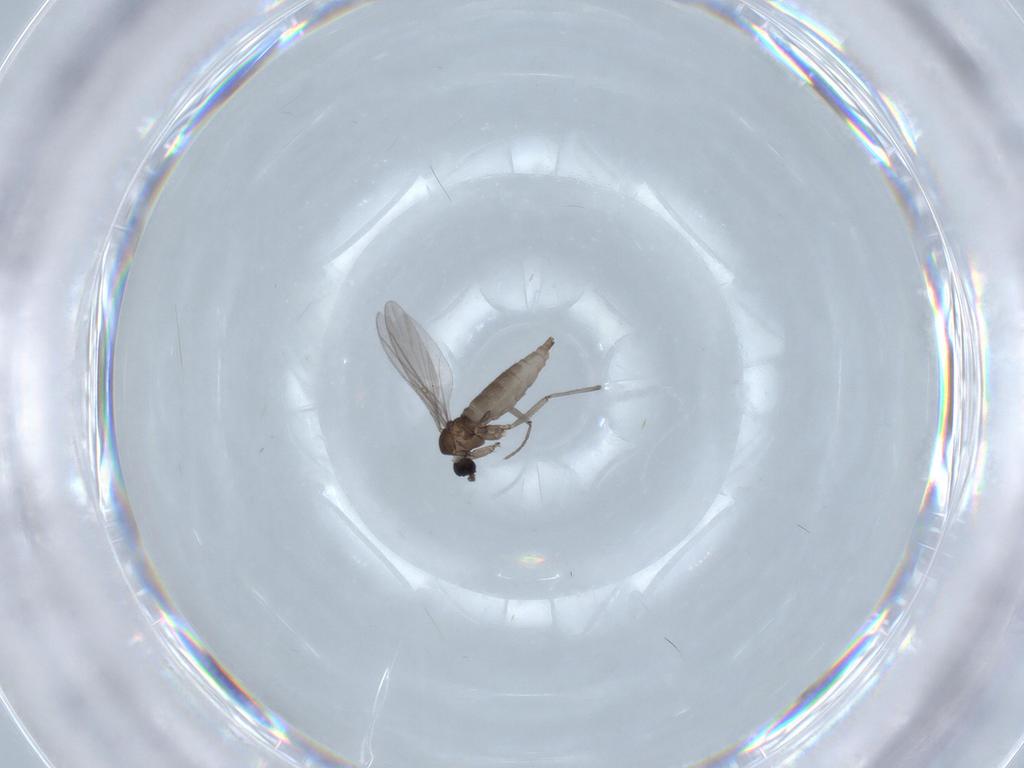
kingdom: Animalia
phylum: Arthropoda
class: Insecta
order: Diptera
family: Sciaridae
